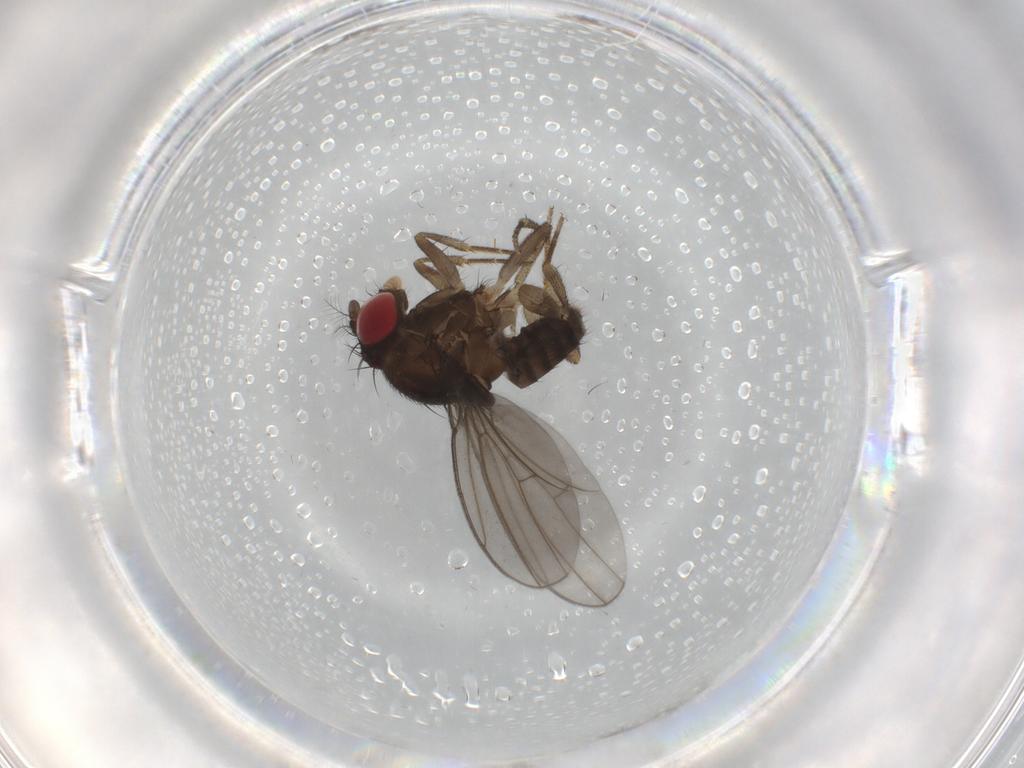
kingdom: Animalia
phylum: Arthropoda
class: Insecta
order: Diptera
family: Drosophilidae
